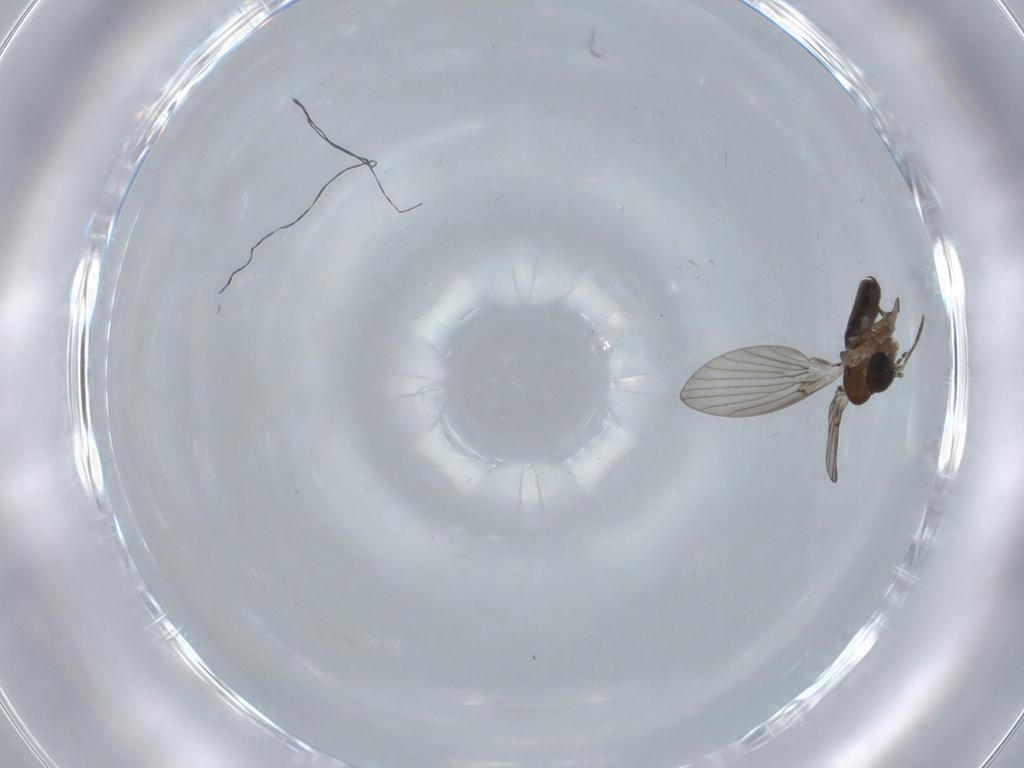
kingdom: Animalia
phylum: Arthropoda
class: Insecta
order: Diptera
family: Psychodidae
